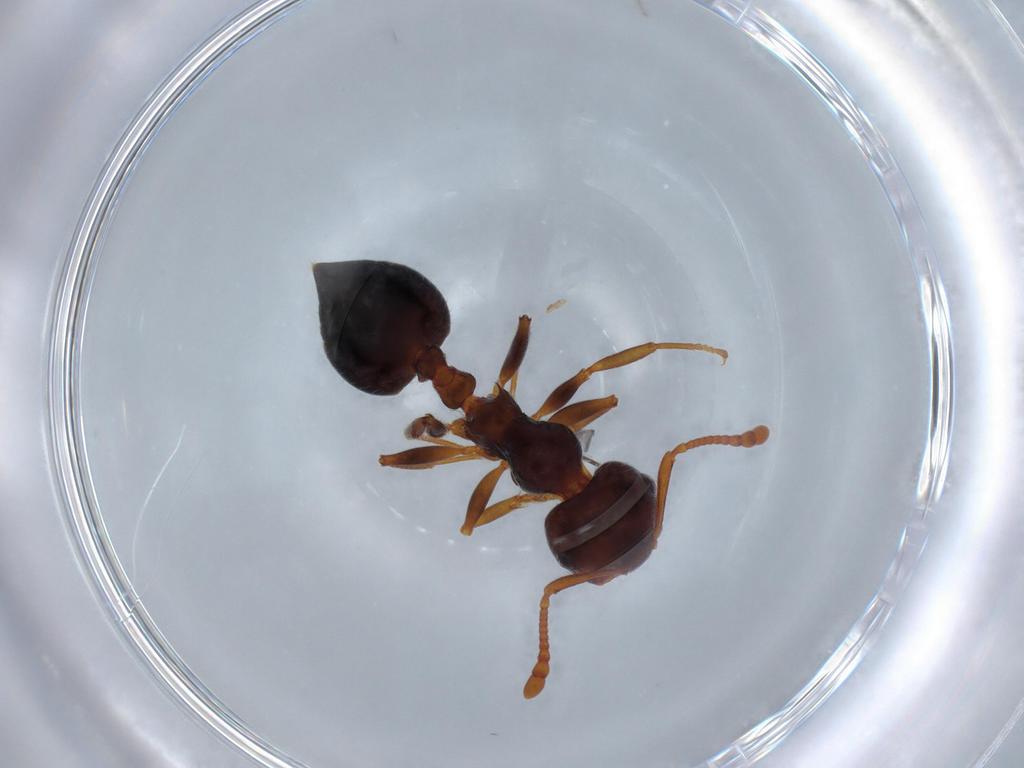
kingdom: Animalia
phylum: Arthropoda
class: Insecta
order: Hymenoptera
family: Formicidae
